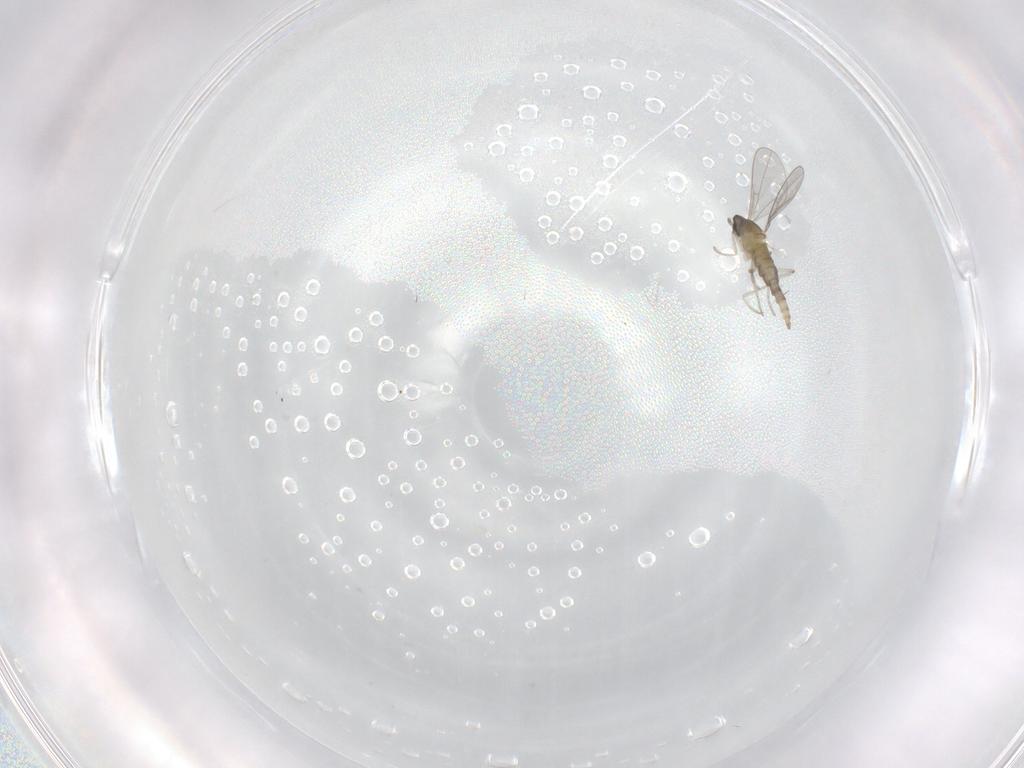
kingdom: Animalia
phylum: Arthropoda
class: Insecta
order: Diptera
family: Cecidomyiidae
